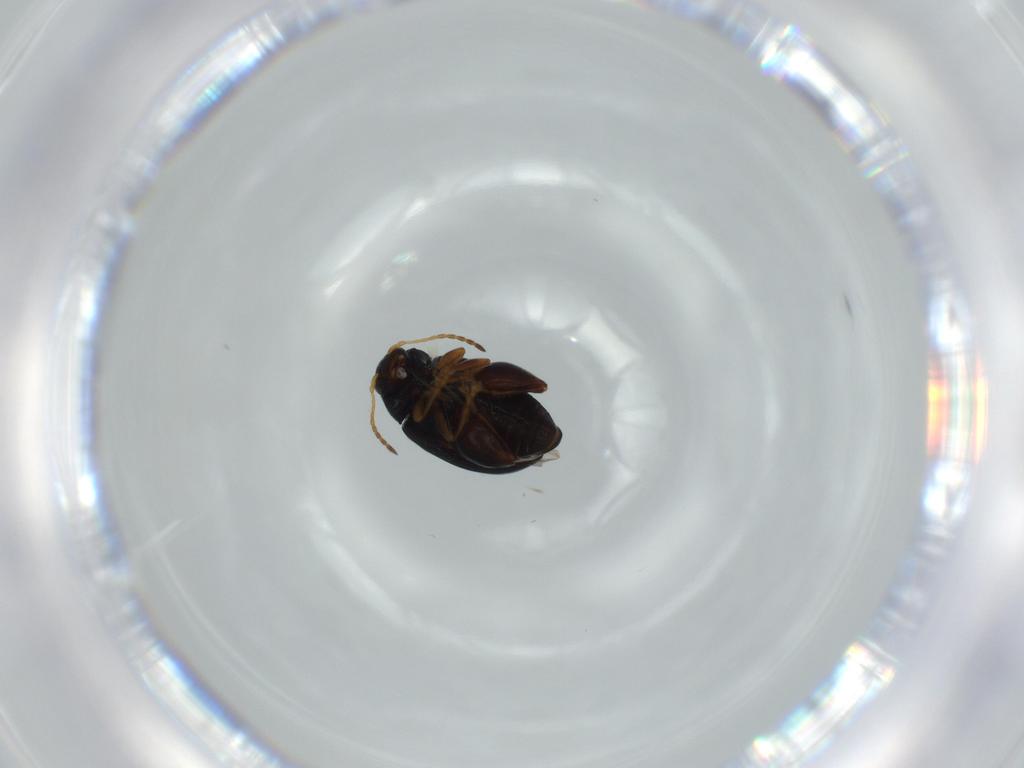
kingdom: Animalia
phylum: Arthropoda
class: Insecta
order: Coleoptera
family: Chrysomelidae
